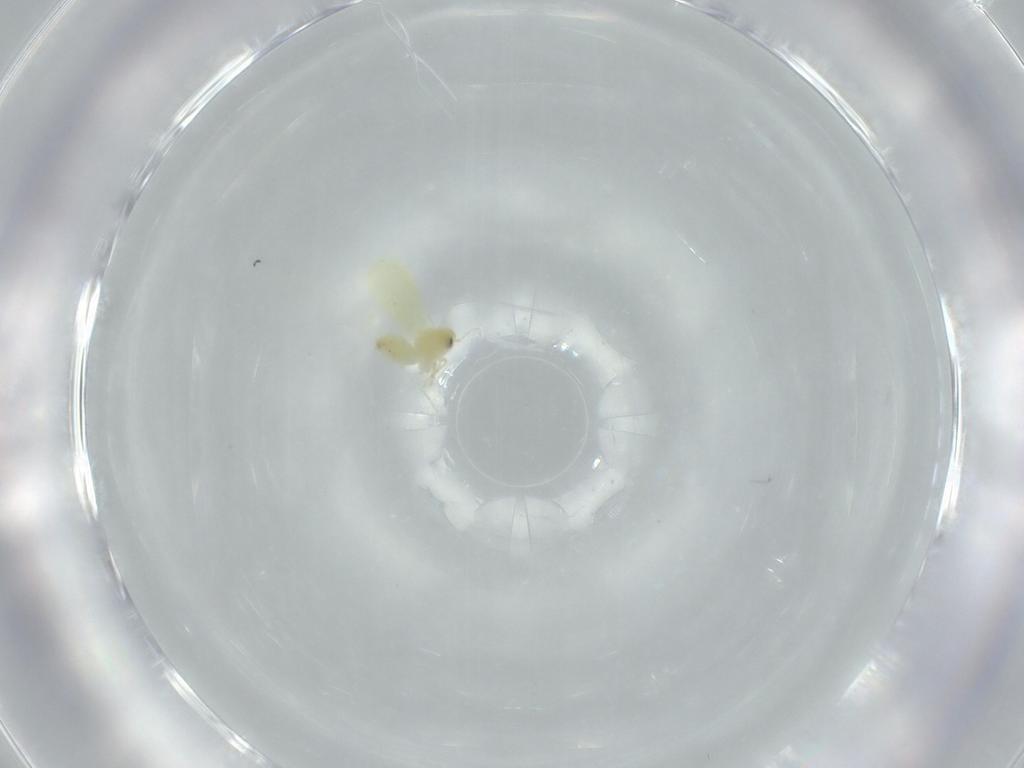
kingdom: Animalia
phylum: Arthropoda
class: Insecta
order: Hemiptera
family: Aleyrodidae
